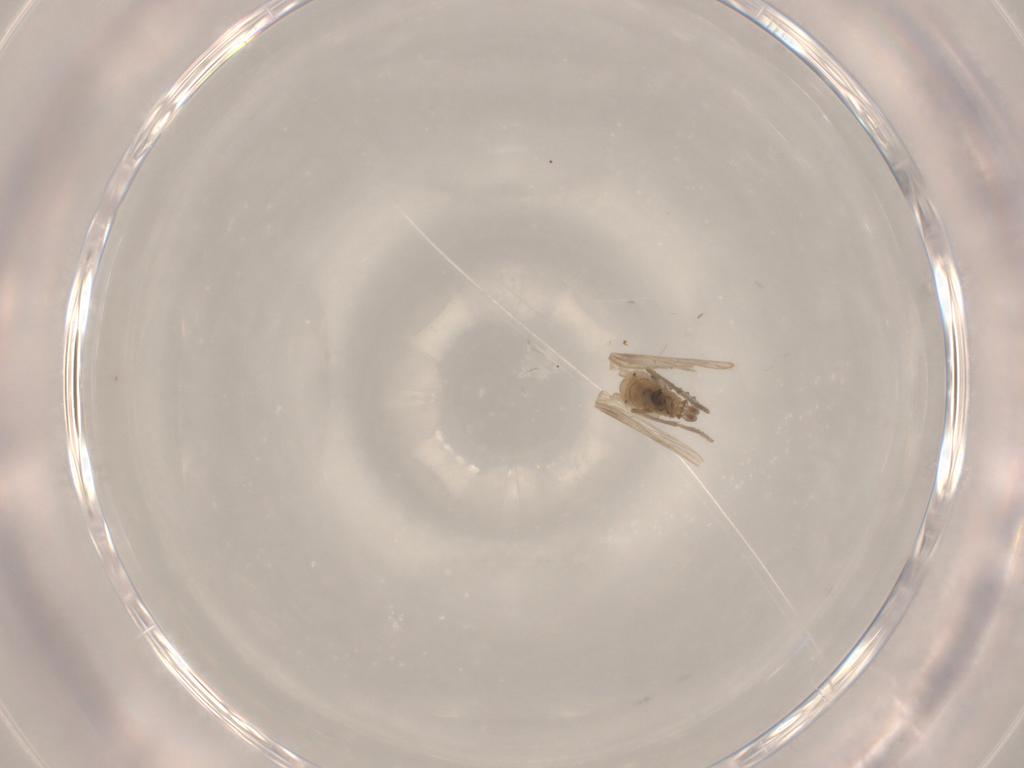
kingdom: Animalia
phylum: Arthropoda
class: Insecta
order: Diptera
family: Psychodidae
